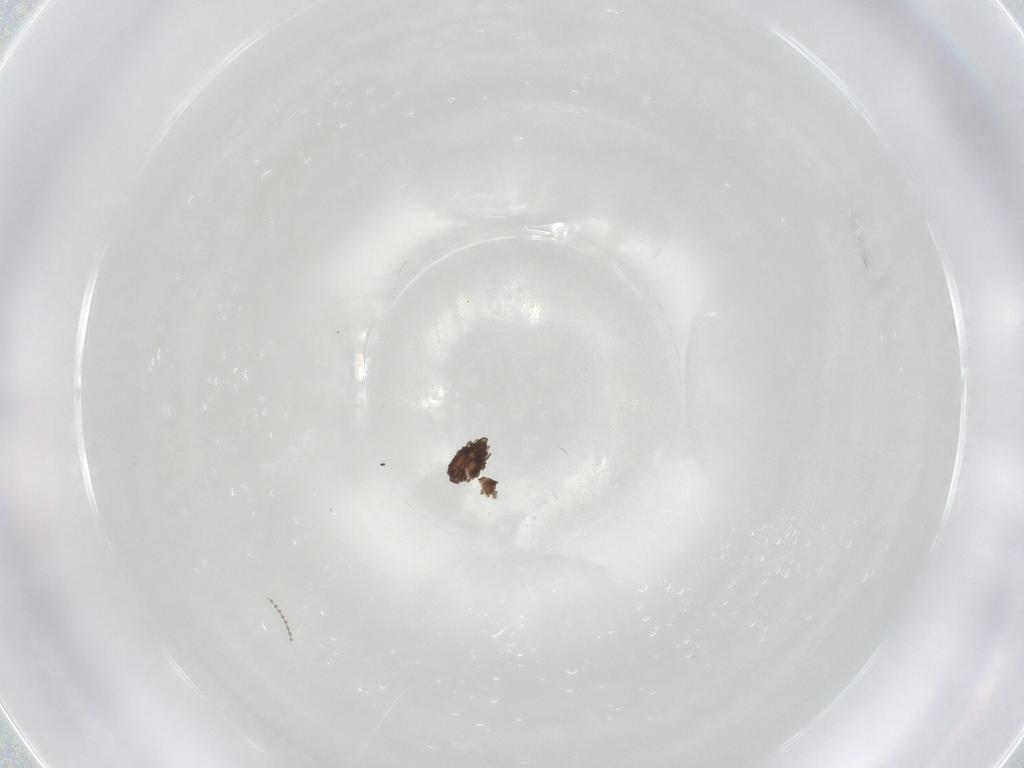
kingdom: Animalia
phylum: Arthropoda
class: Insecta
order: Diptera
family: Cecidomyiidae
